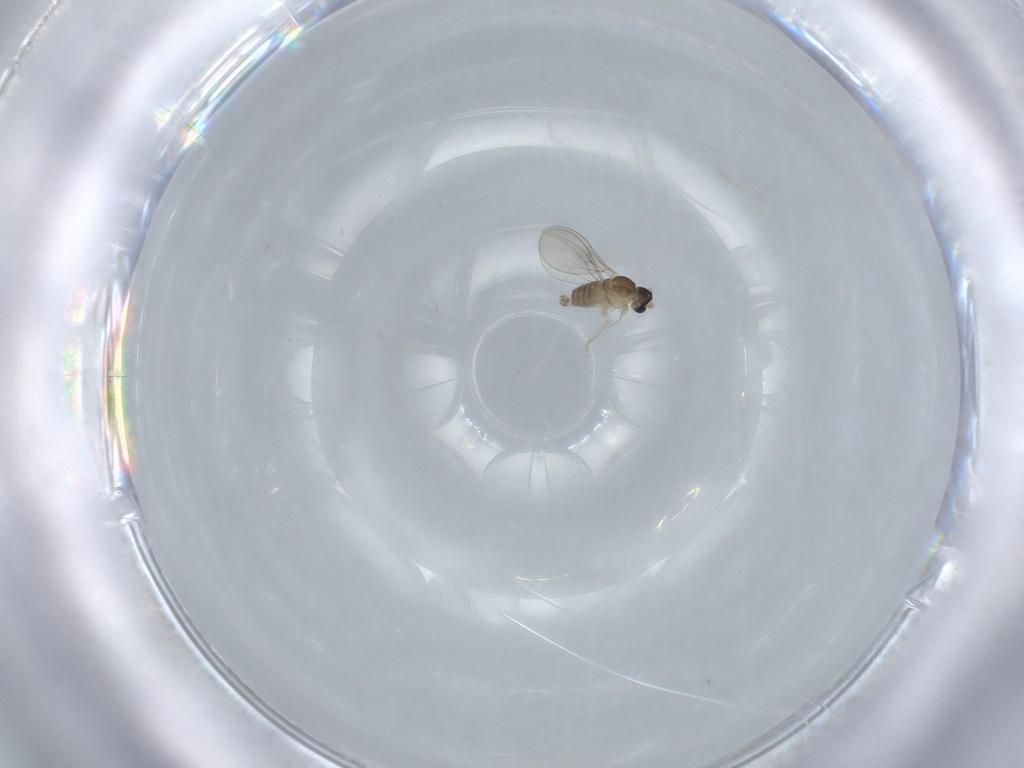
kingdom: Animalia
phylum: Arthropoda
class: Insecta
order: Diptera
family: Cecidomyiidae
